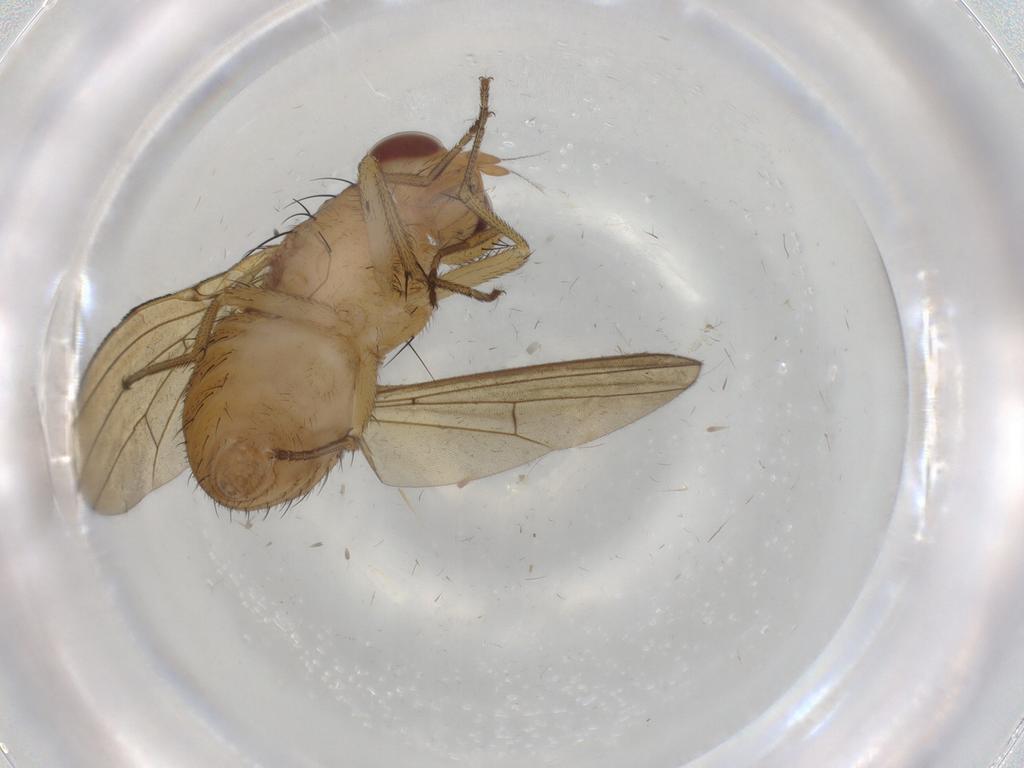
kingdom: Animalia
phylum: Arthropoda
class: Insecta
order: Diptera
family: Lauxaniidae
